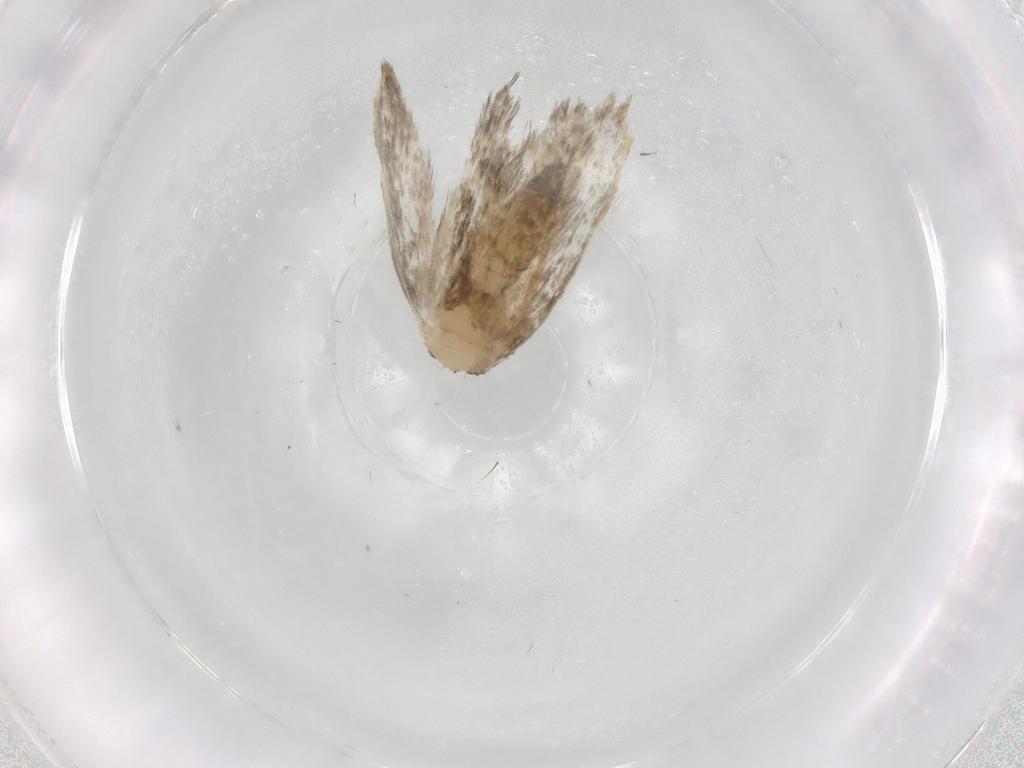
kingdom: Animalia
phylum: Arthropoda
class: Insecta
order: Lepidoptera
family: Psychidae
